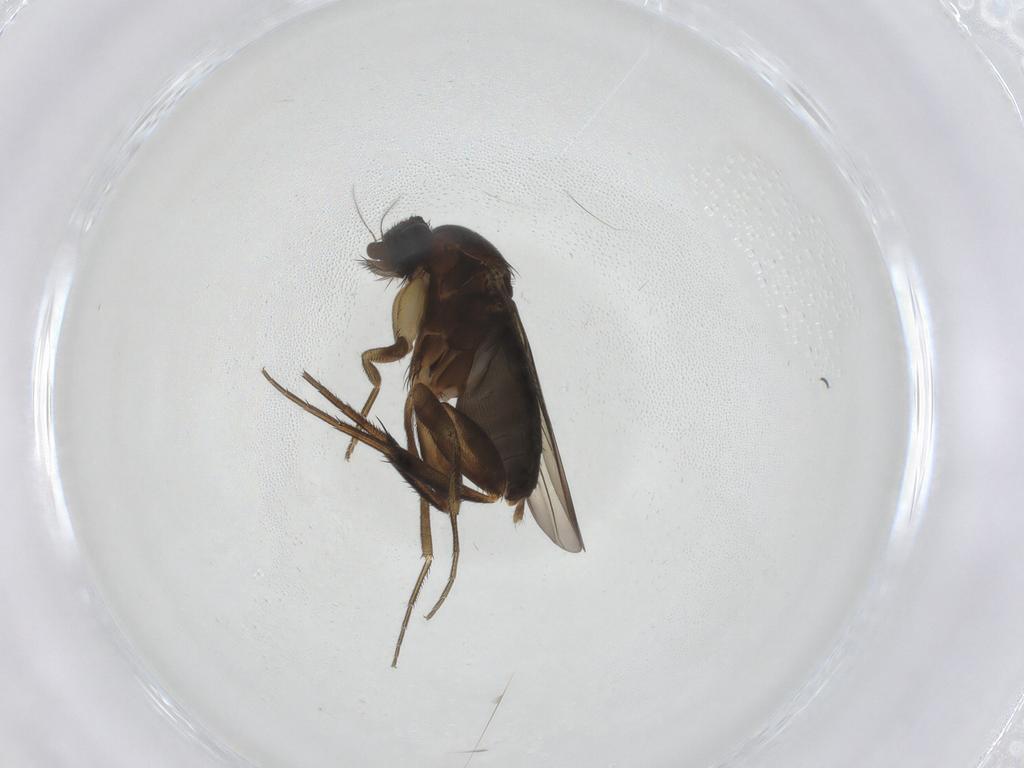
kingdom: Animalia
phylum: Arthropoda
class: Insecta
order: Diptera
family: Phoridae
